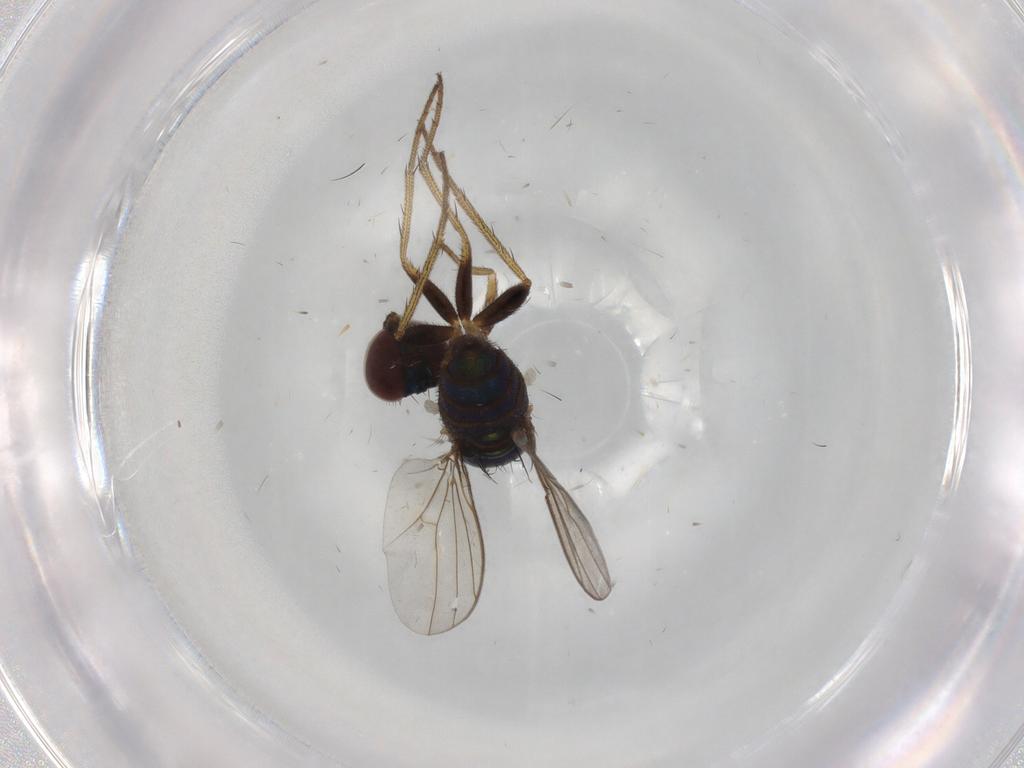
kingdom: Animalia
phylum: Arthropoda
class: Insecta
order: Diptera
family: Dolichopodidae
